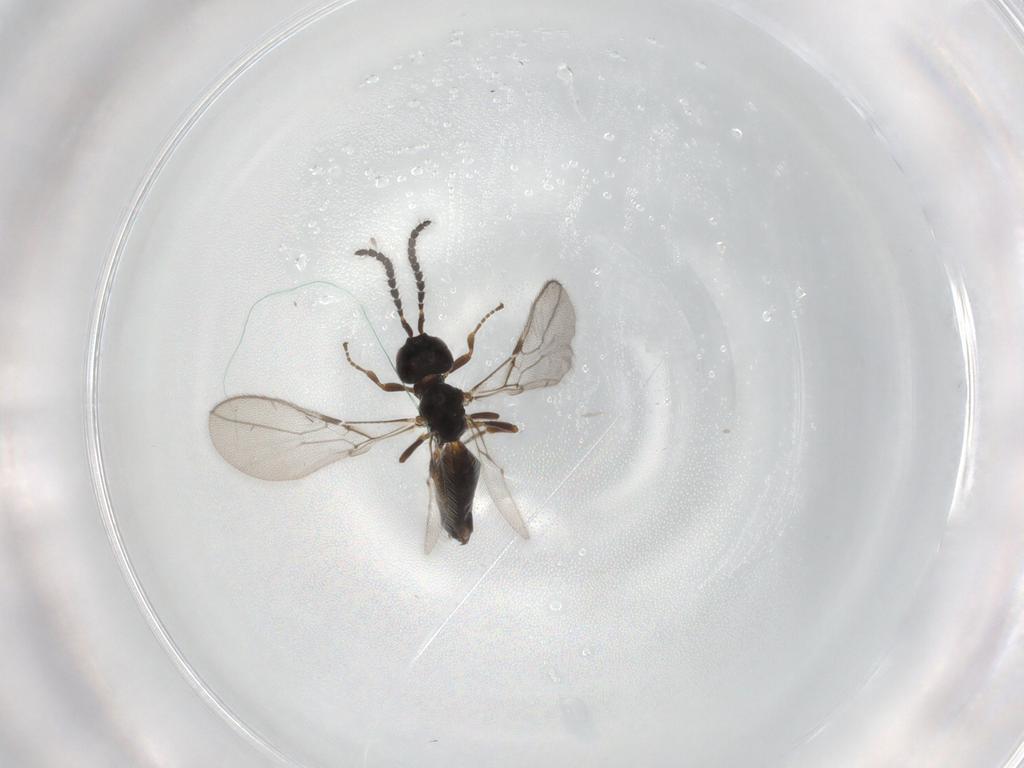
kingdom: Animalia
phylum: Arthropoda
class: Insecta
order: Hymenoptera
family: Braconidae
